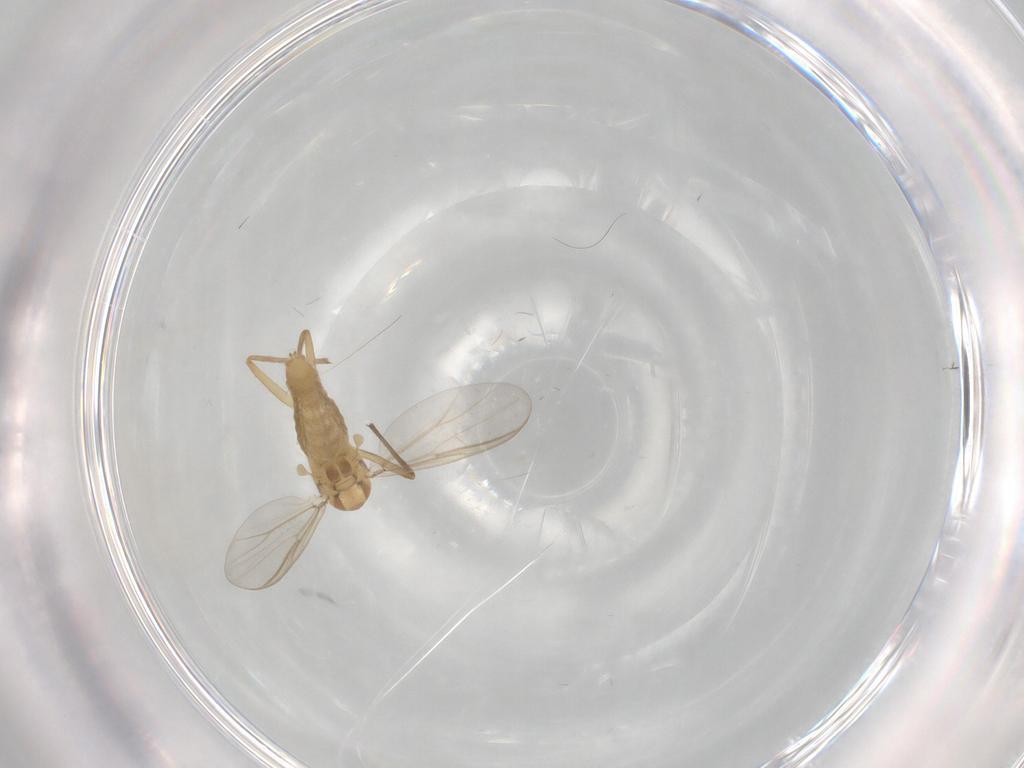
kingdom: Animalia
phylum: Arthropoda
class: Insecta
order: Diptera
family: Chironomidae
